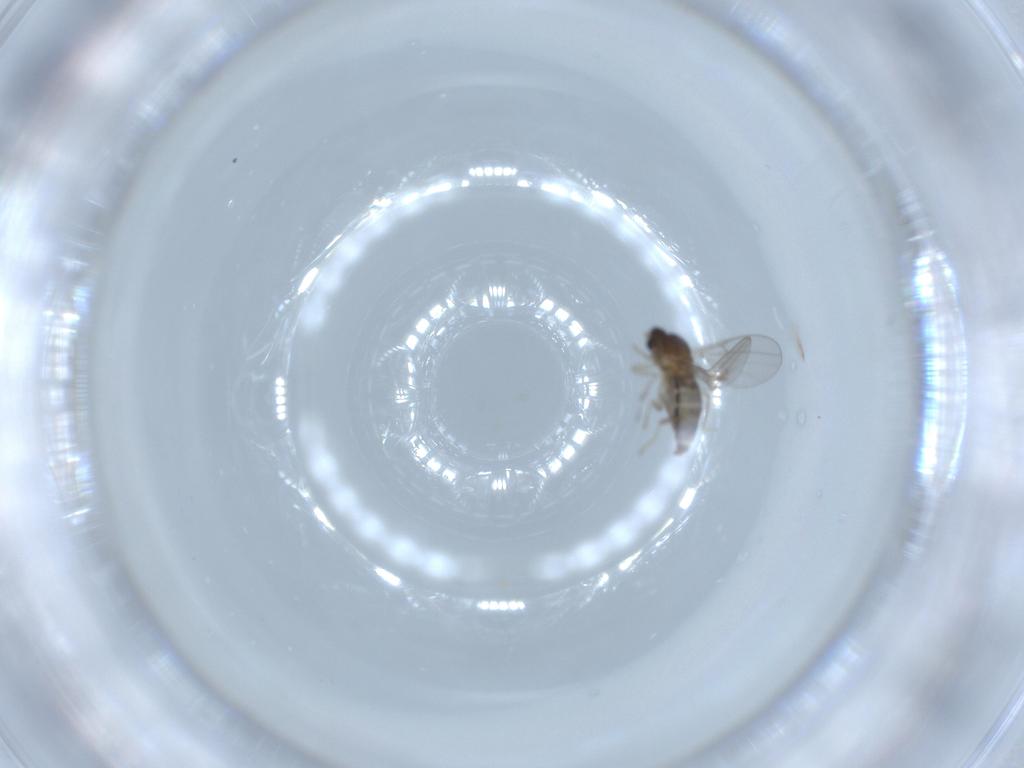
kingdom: Animalia
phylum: Arthropoda
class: Insecta
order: Diptera
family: Cecidomyiidae
